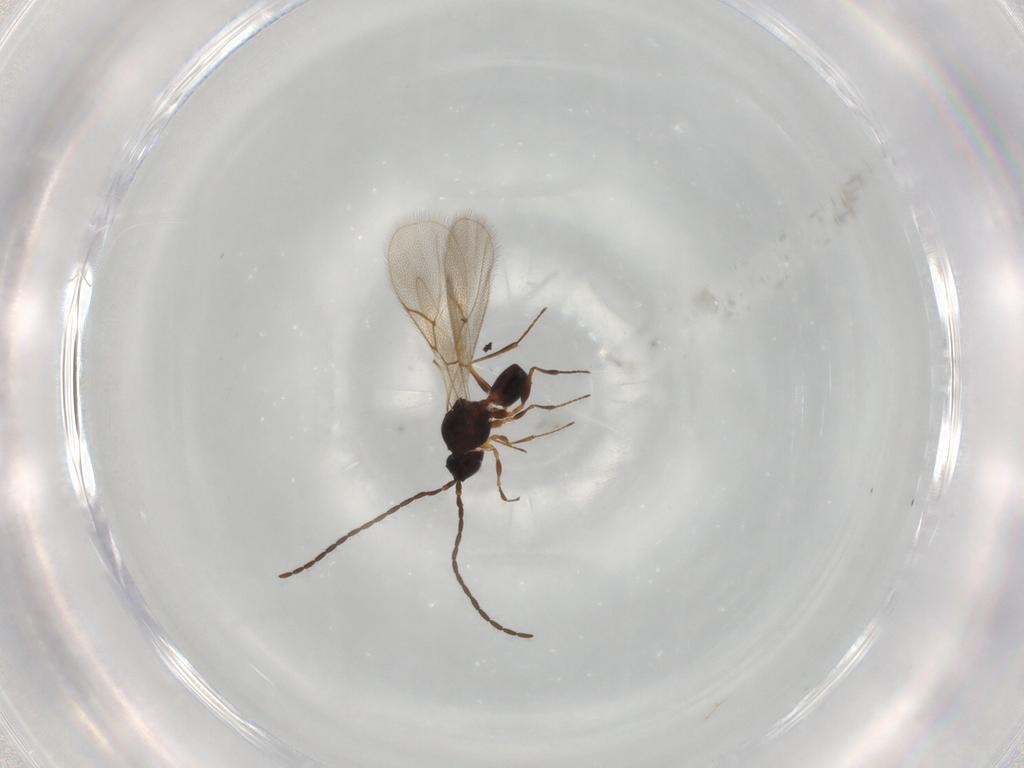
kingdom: Animalia
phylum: Arthropoda
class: Insecta
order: Hymenoptera
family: Figitidae
